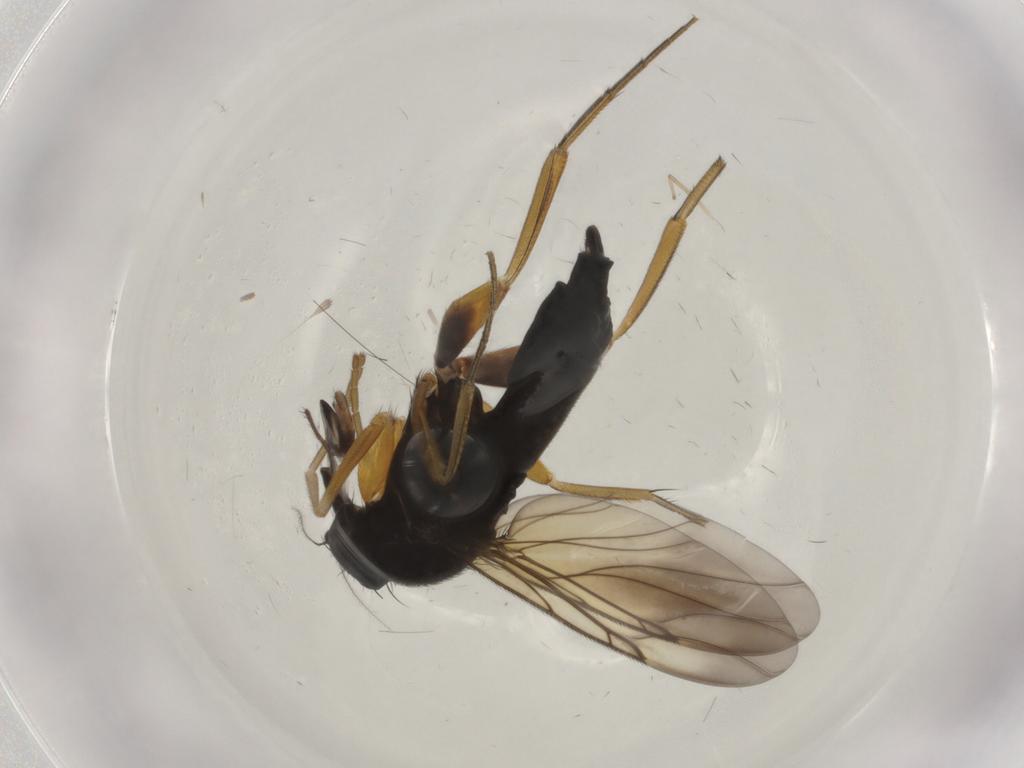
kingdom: Animalia
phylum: Arthropoda
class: Insecta
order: Diptera
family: Chironomidae
